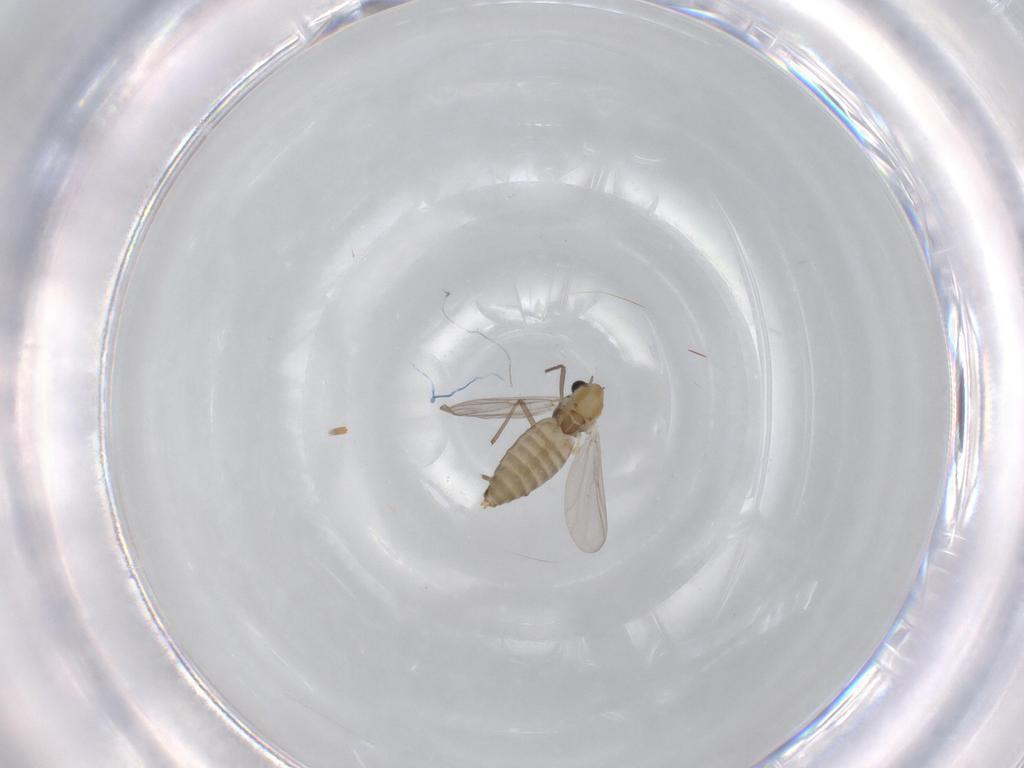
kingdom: Animalia
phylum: Arthropoda
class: Insecta
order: Diptera
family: Chironomidae
